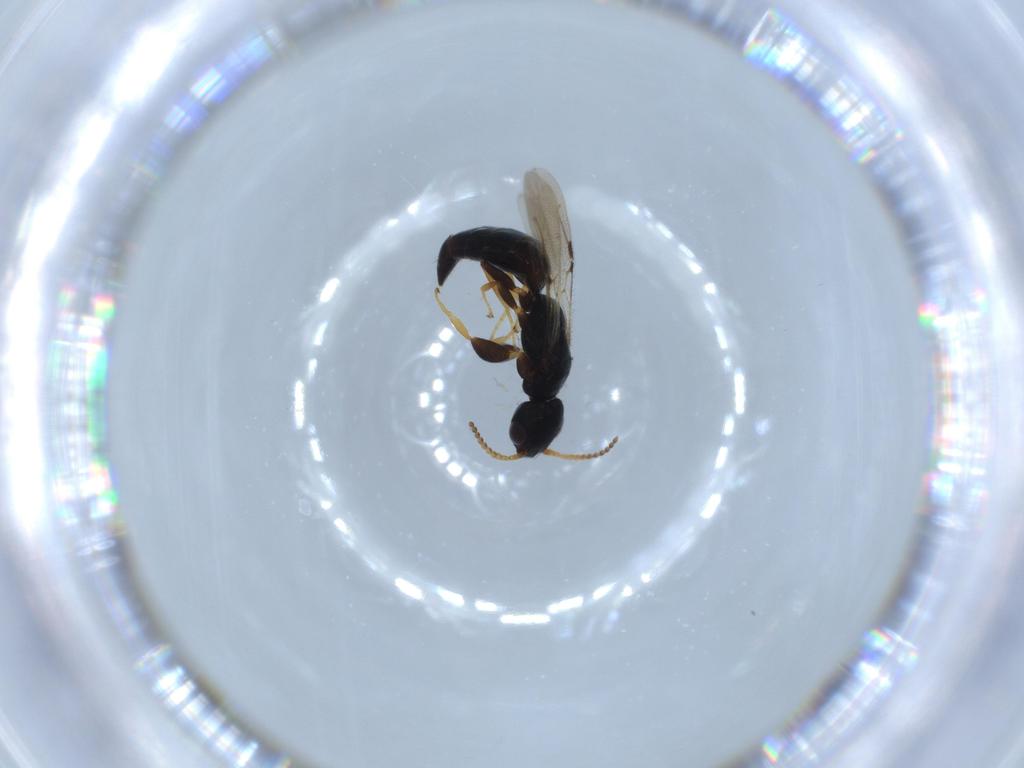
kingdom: Animalia
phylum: Arthropoda
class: Insecta
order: Hymenoptera
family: Bethylidae
